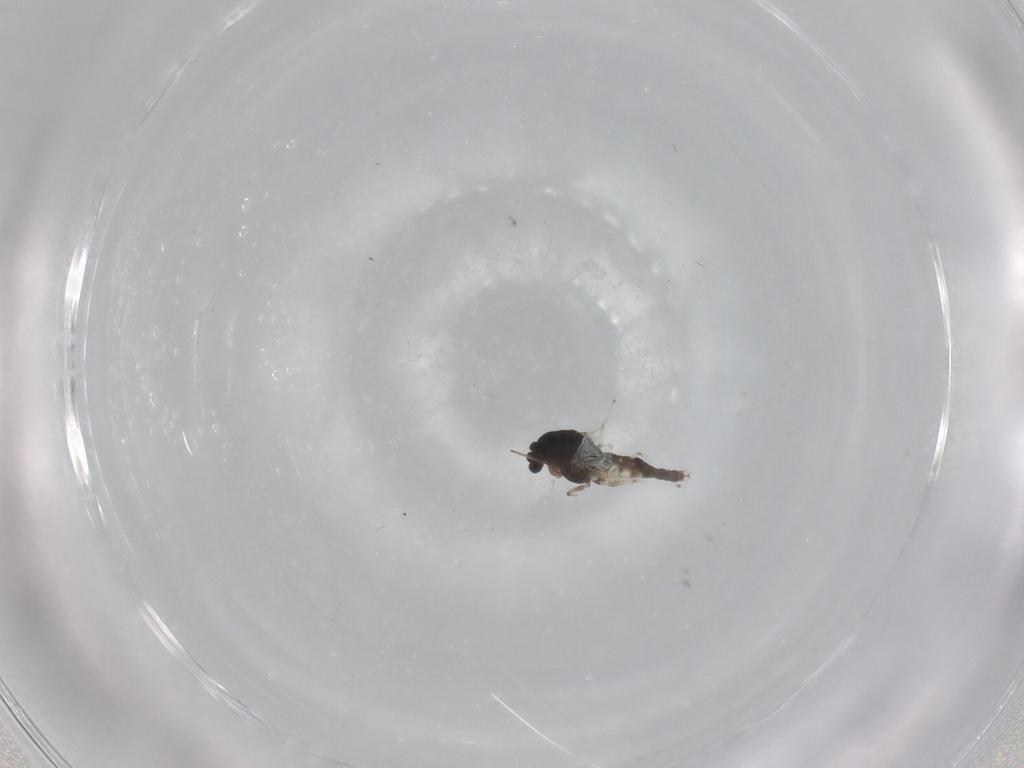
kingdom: Animalia
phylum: Arthropoda
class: Insecta
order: Diptera
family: Chironomidae
